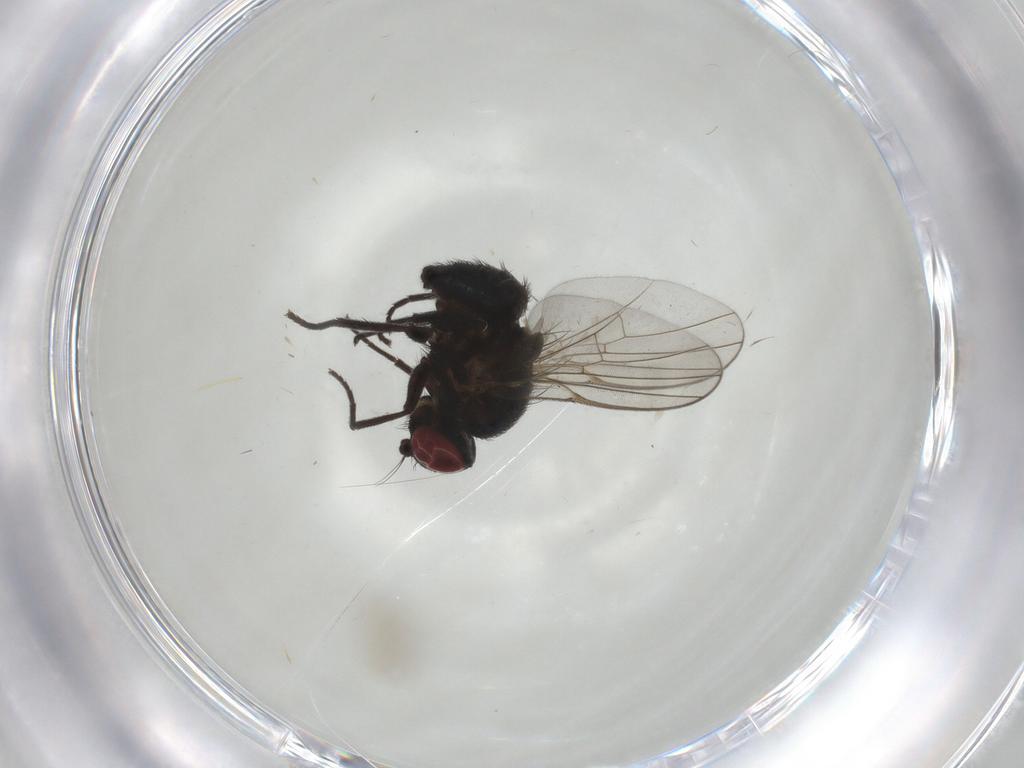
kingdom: Animalia
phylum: Arthropoda
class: Insecta
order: Diptera
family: Agromyzidae
